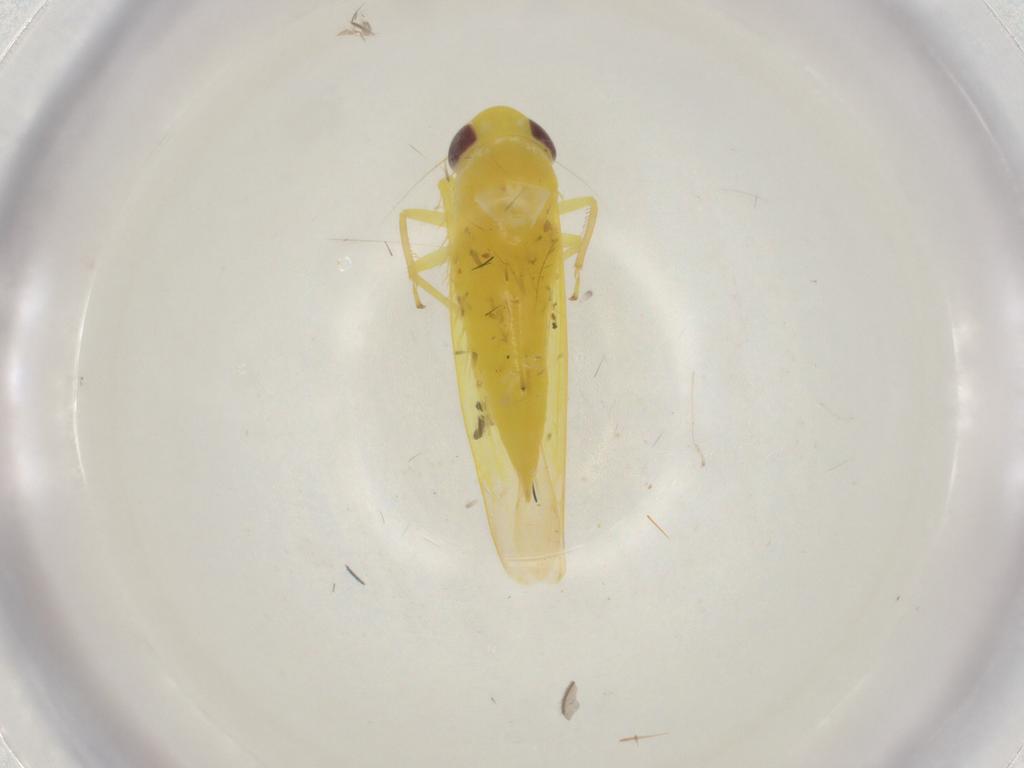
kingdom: Animalia
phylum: Arthropoda
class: Insecta
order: Hemiptera
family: Cicadellidae
